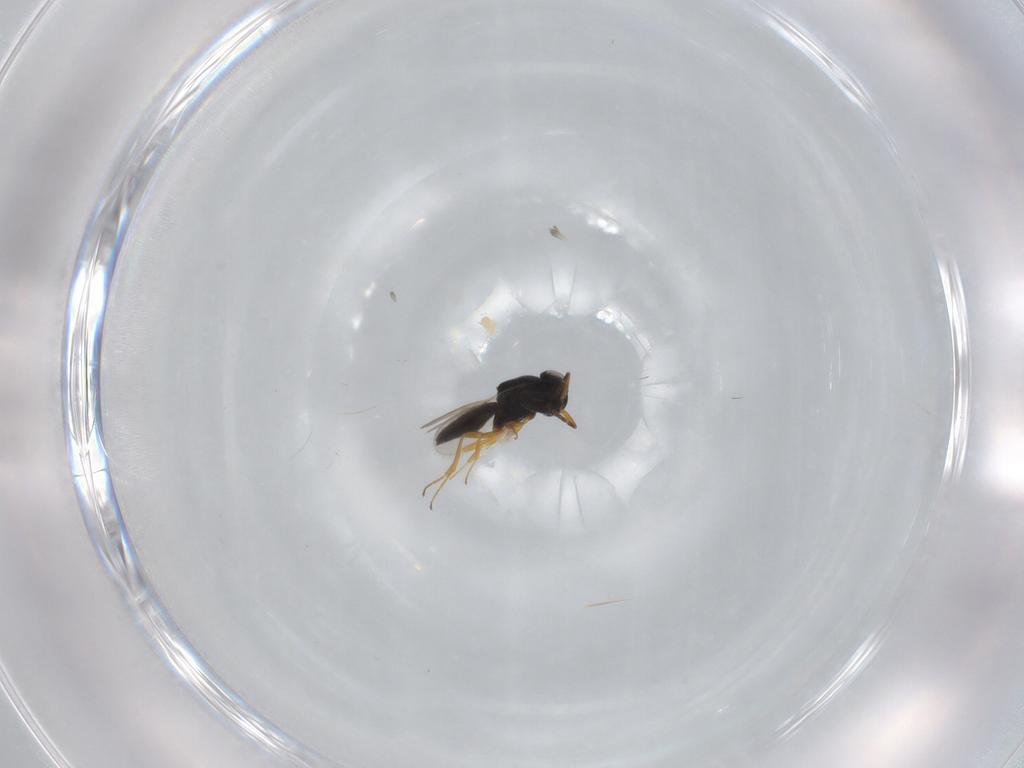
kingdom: Animalia
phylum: Arthropoda
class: Insecta
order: Hymenoptera
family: Scelionidae
